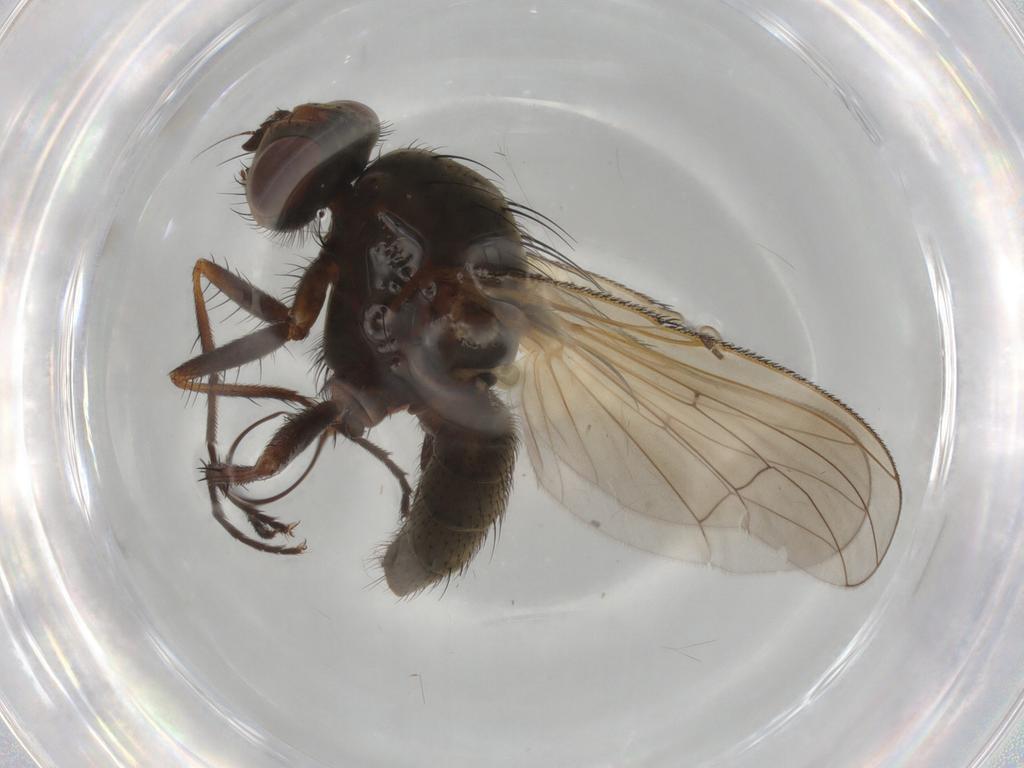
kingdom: Animalia
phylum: Arthropoda
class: Insecta
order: Diptera
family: Anthomyiidae
